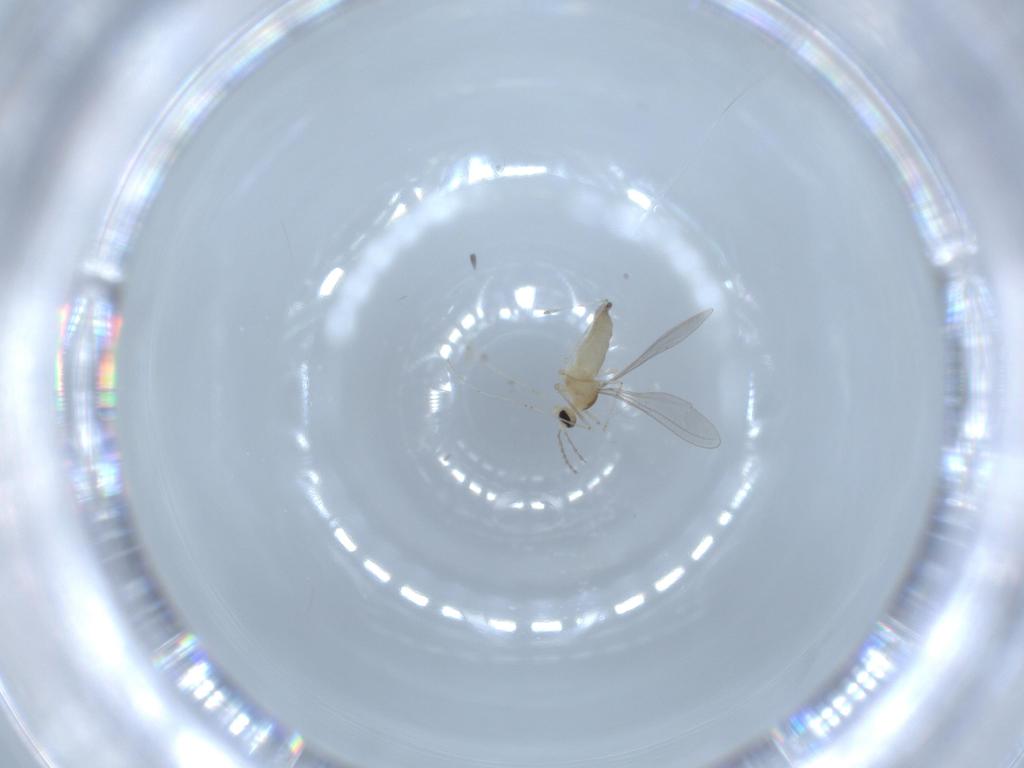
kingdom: Animalia
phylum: Arthropoda
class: Insecta
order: Diptera
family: Cecidomyiidae
